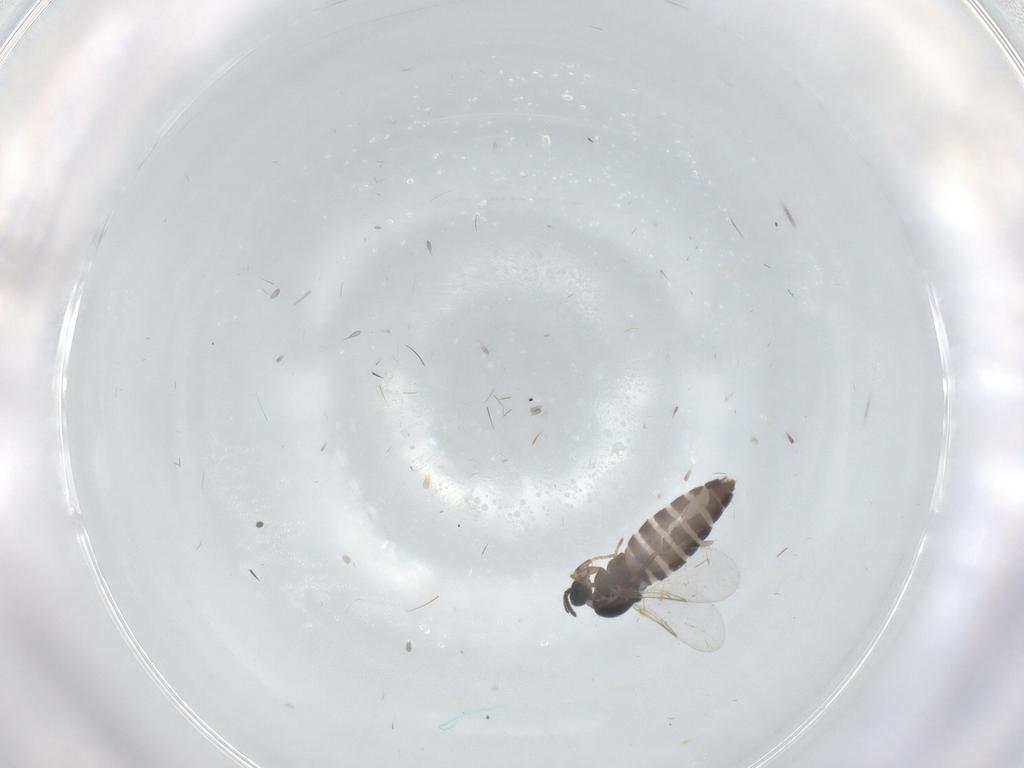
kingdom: Animalia
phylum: Arthropoda
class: Insecta
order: Diptera
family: Scatopsidae
